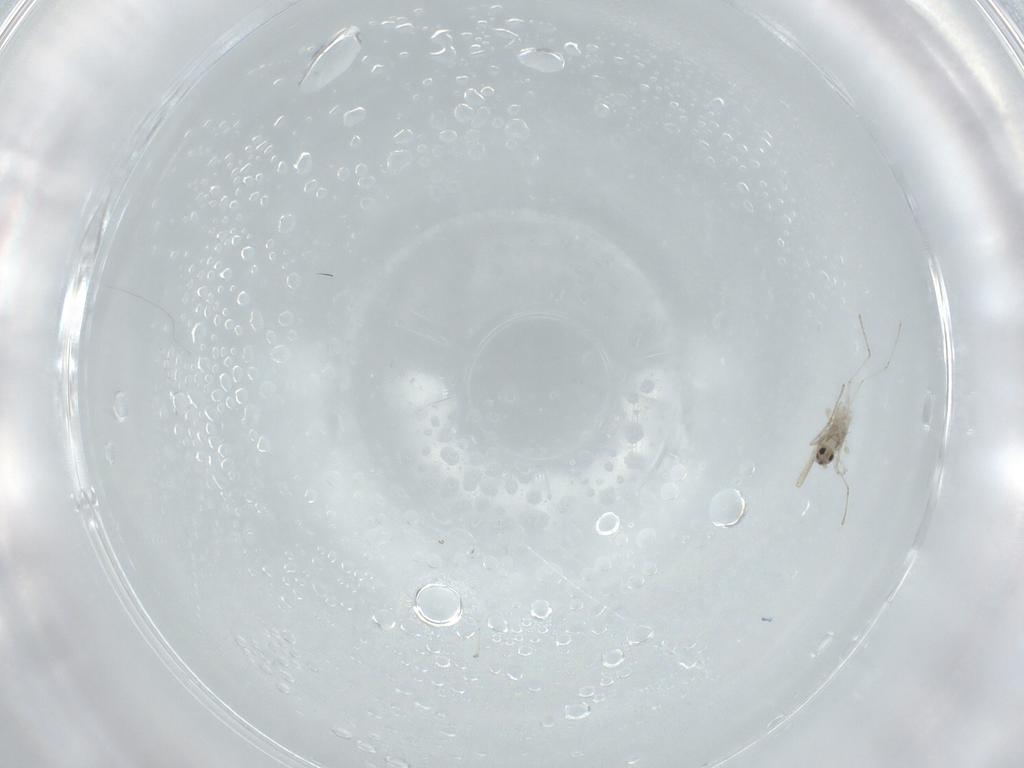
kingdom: Animalia
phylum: Arthropoda
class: Insecta
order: Diptera
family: Cecidomyiidae
